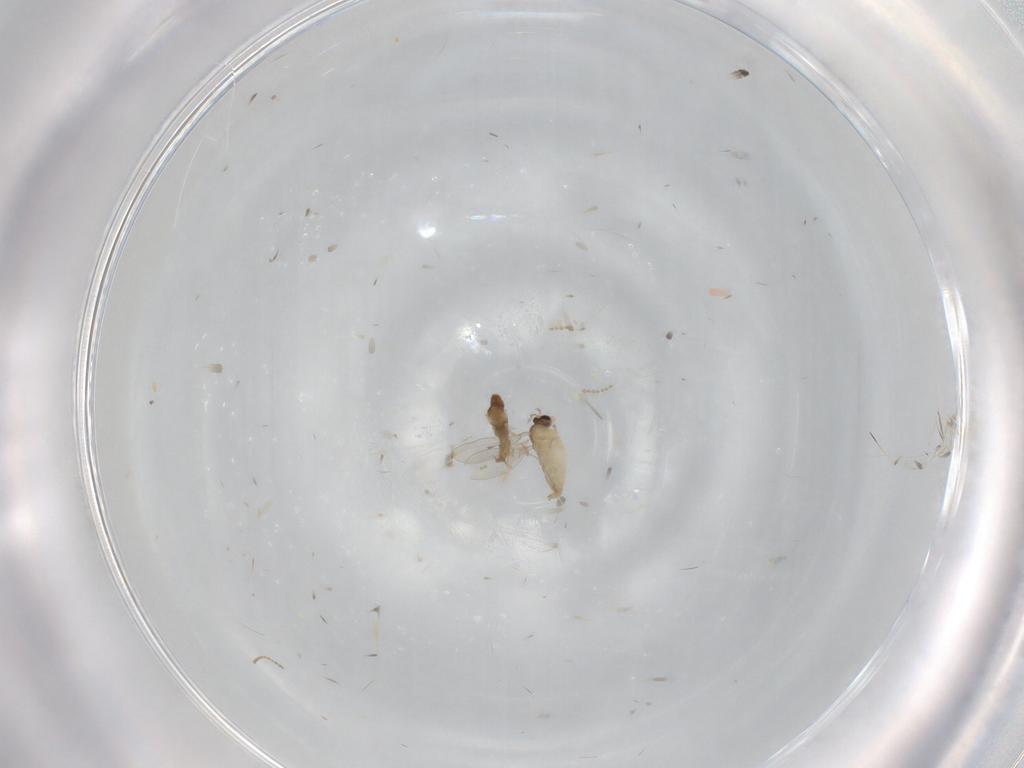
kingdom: Animalia
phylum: Arthropoda
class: Insecta
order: Diptera
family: Cecidomyiidae
